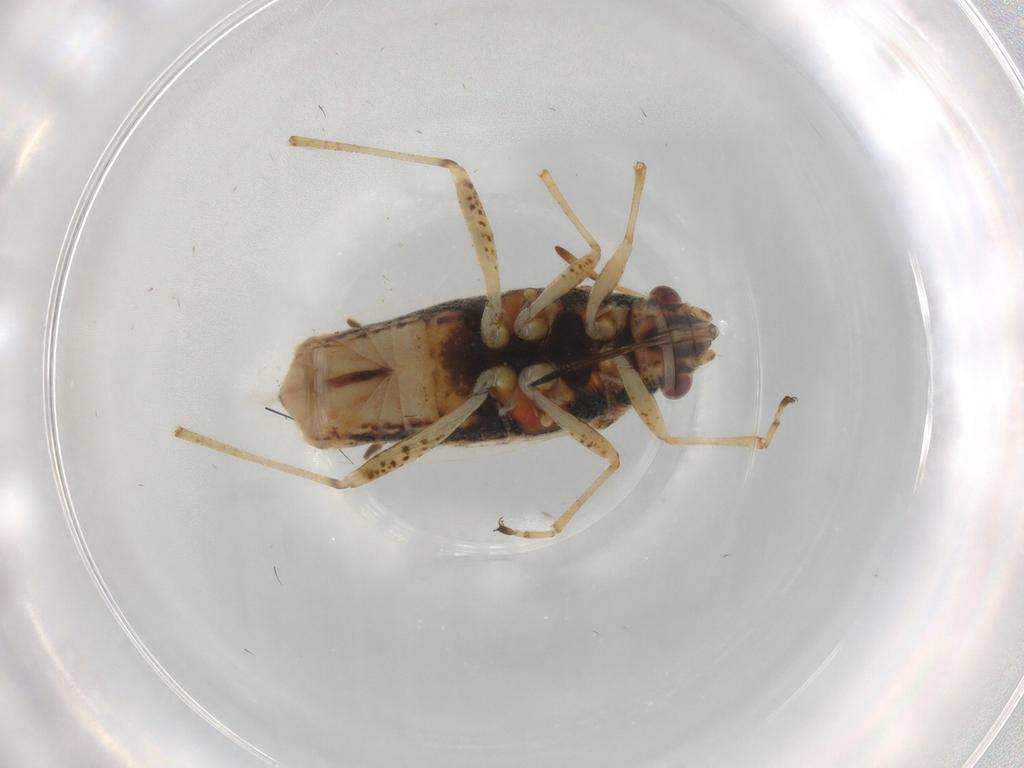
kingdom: Animalia
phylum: Arthropoda
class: Insecta
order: Hemiptera
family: Lygaeidae
